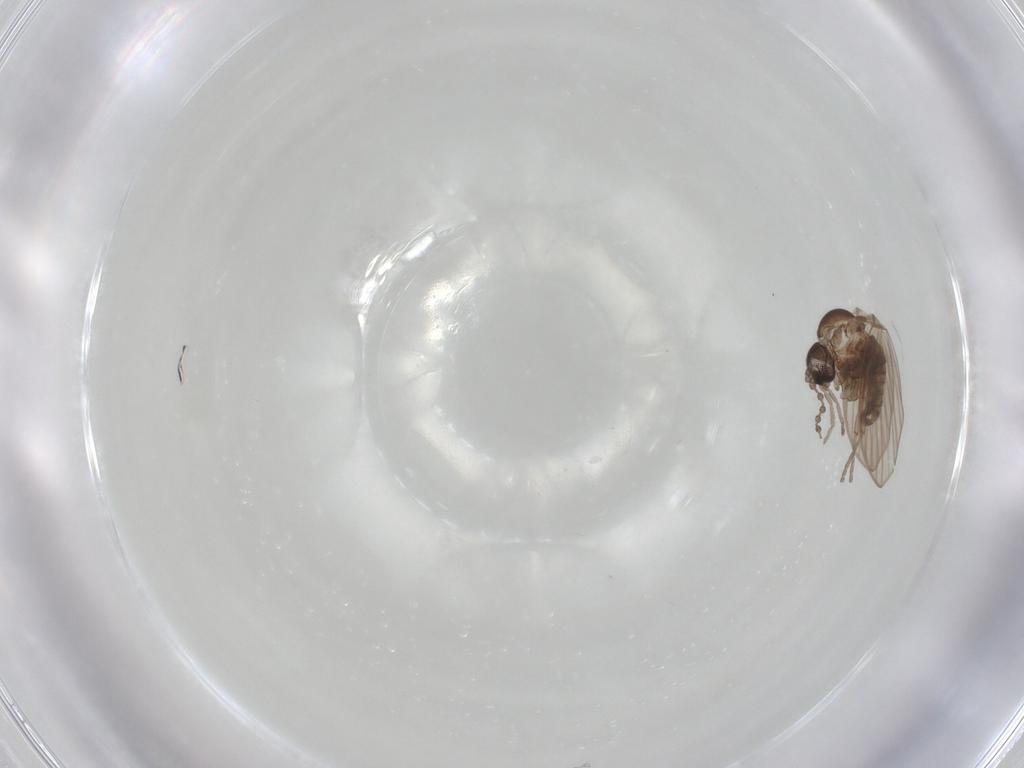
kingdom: Animalia
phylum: Arthropoda
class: Insecta
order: Diptera
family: Psychodidae
